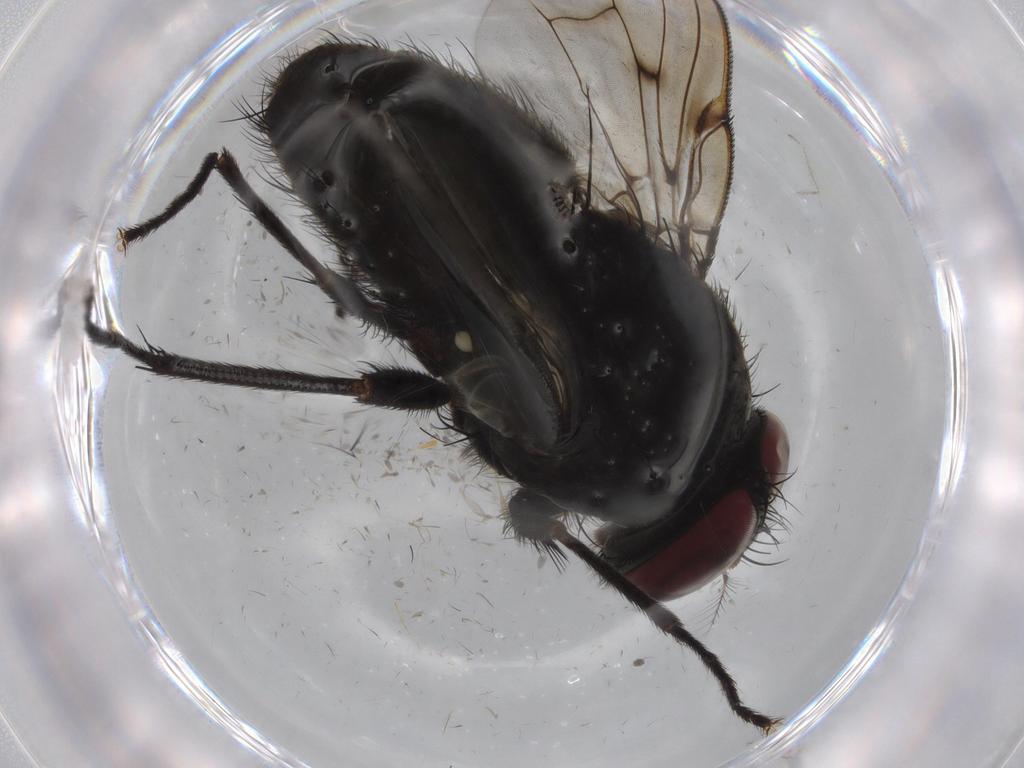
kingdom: Animalia
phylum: Arthropoda
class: Insecta
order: Diptera
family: Muscidae
